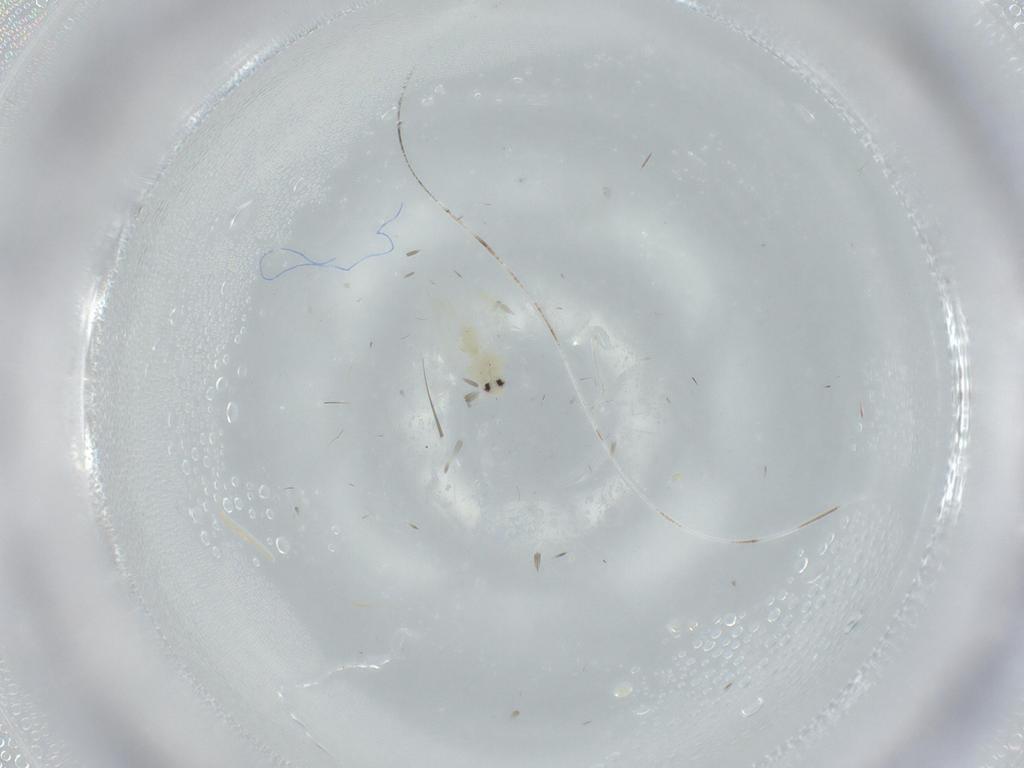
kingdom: Animalia
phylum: Arthropoda
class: Insecta
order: Hemiptera
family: Aleyrodidae
